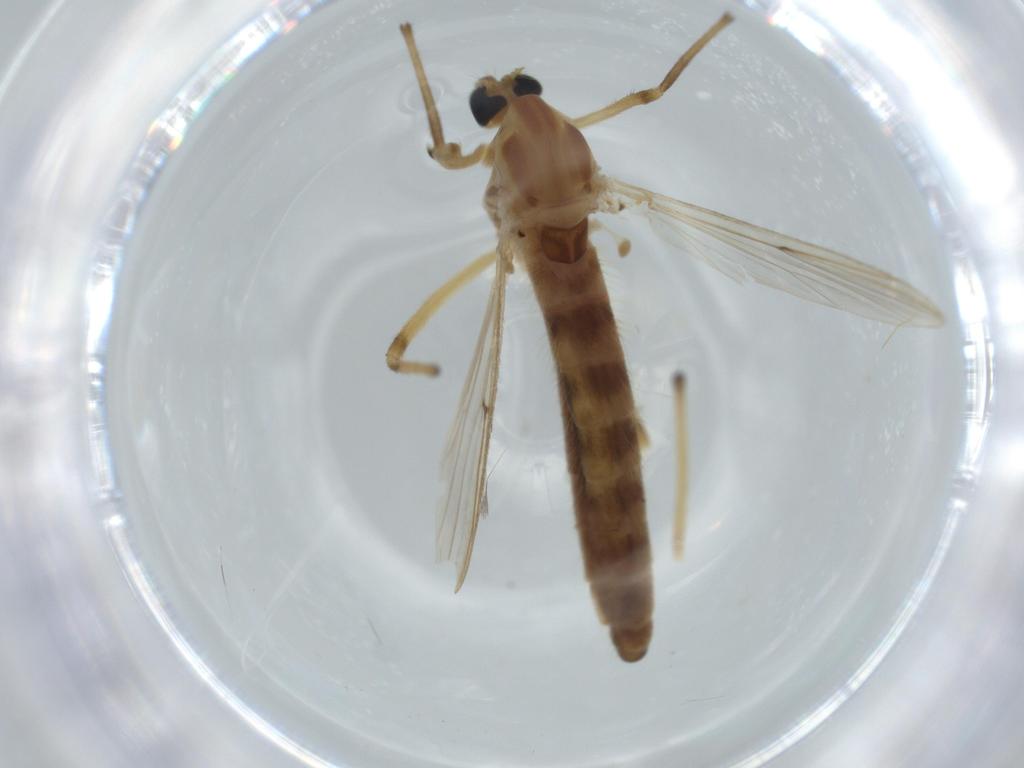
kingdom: Animalia
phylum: Arthropoda
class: Insecta
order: Diptera
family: Chironomidae
